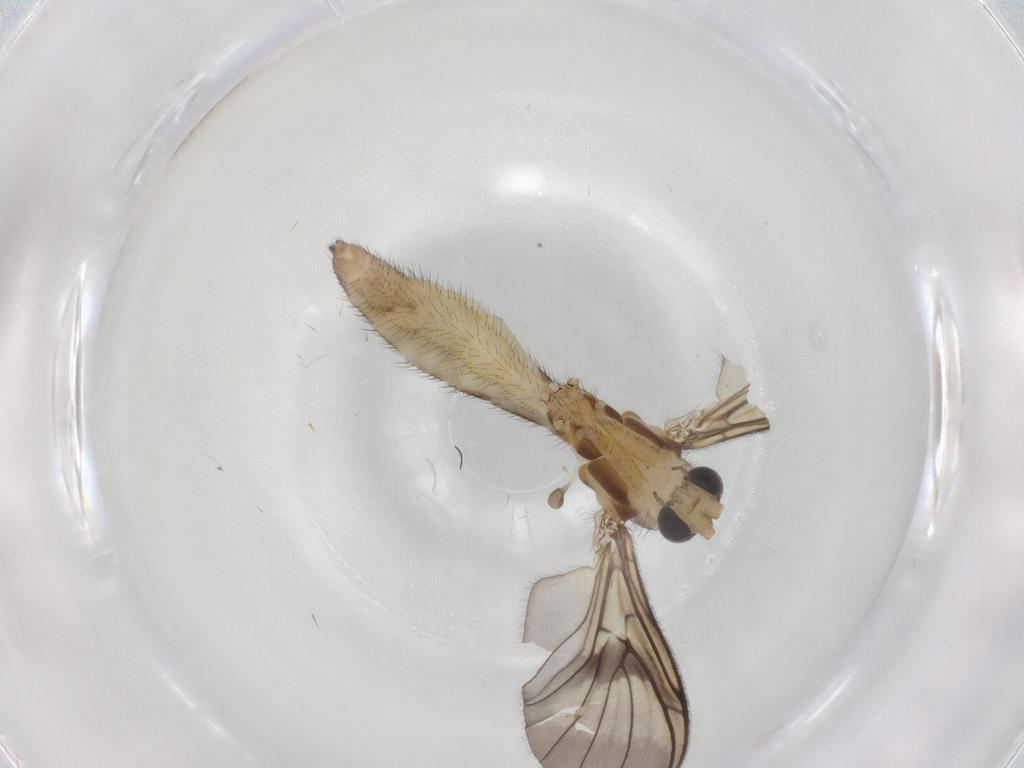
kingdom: Animalia
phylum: Arthropoda
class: Insecta
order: Diptera
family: Keroplatidae
